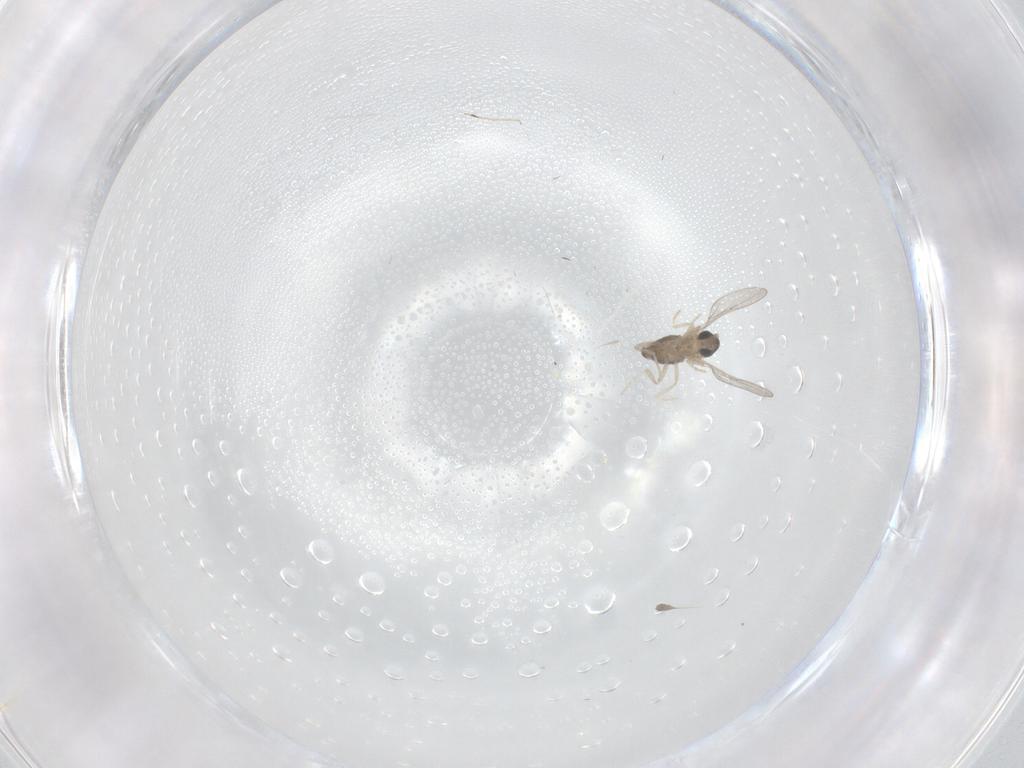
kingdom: Animalia
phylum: Arthropoda
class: Insecta
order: Diptera
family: Cecidomyiidae
